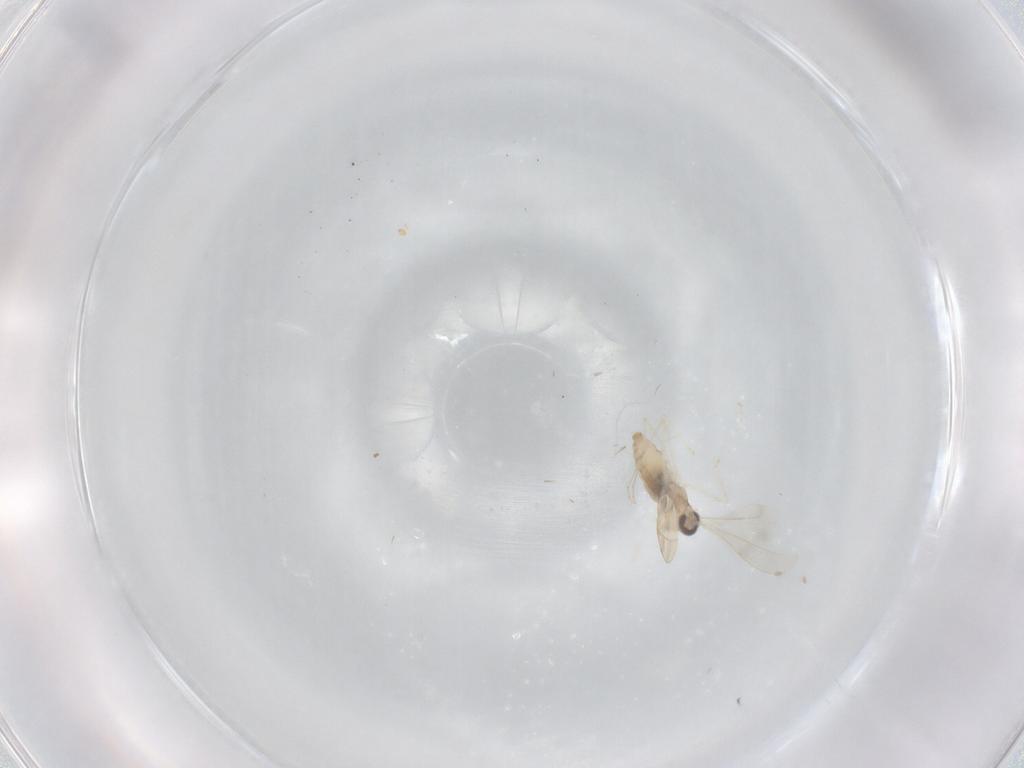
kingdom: Animalia
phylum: Arthropoda
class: Insecta
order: Diptera
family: Cecidomyiidae
